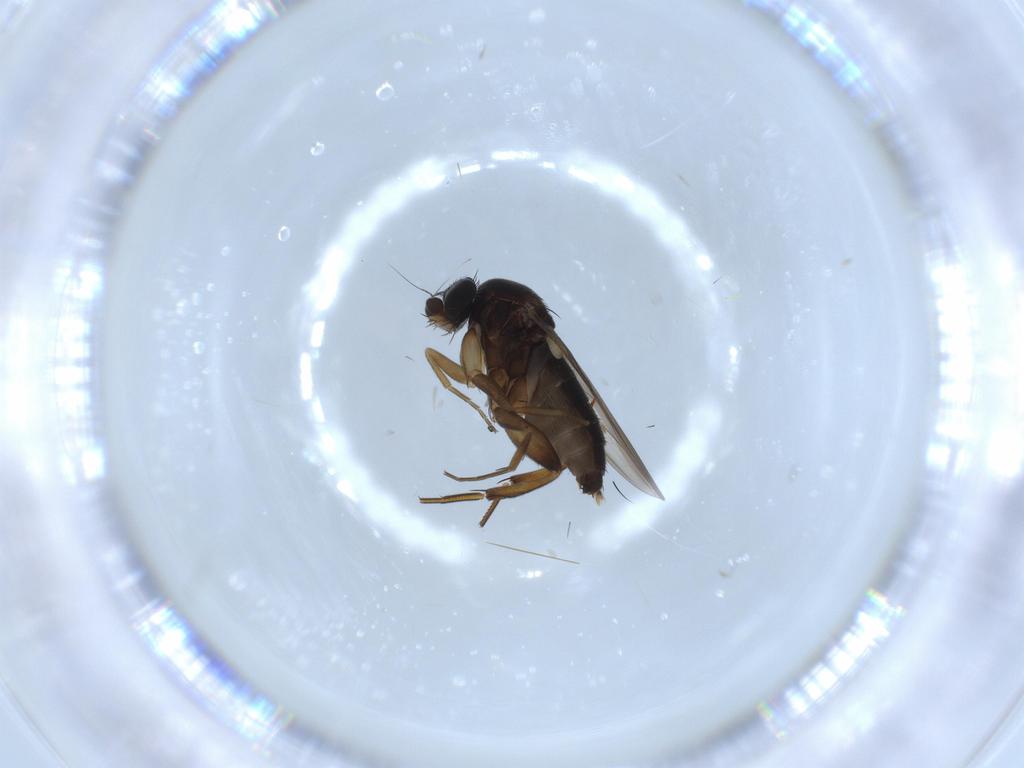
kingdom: Animalia
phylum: Arthropoda
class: Insecta
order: Diptera
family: Phoridae
